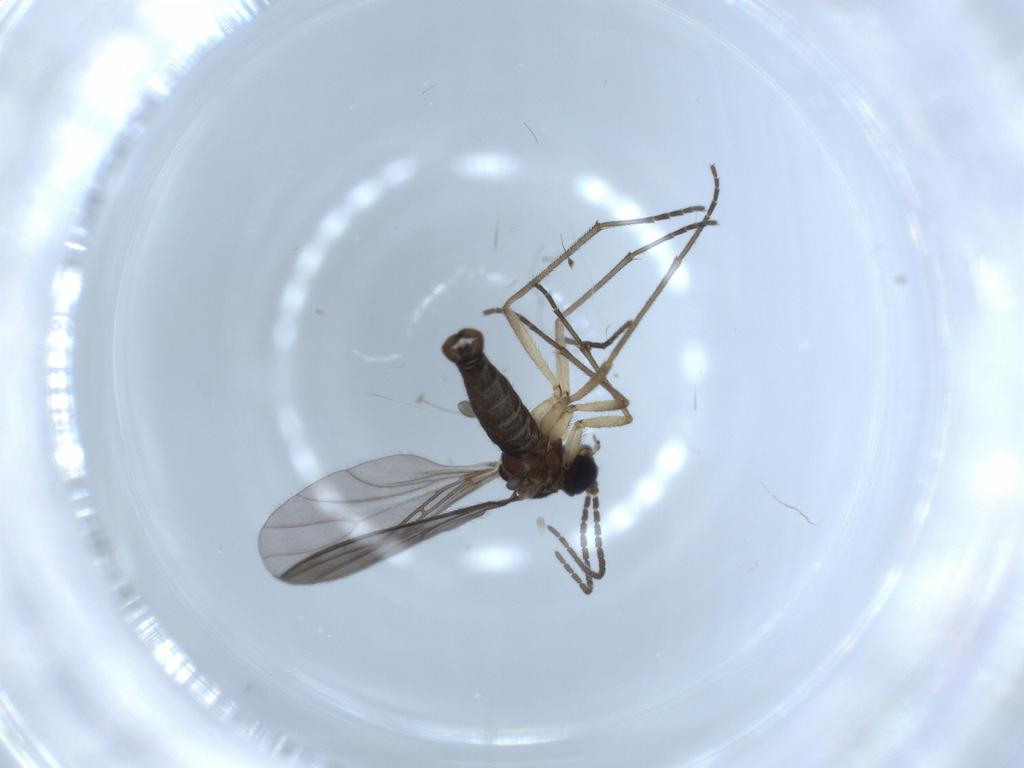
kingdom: Animalia
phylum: Arthropoda
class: Insecta
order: Diptera
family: Sciaridae
